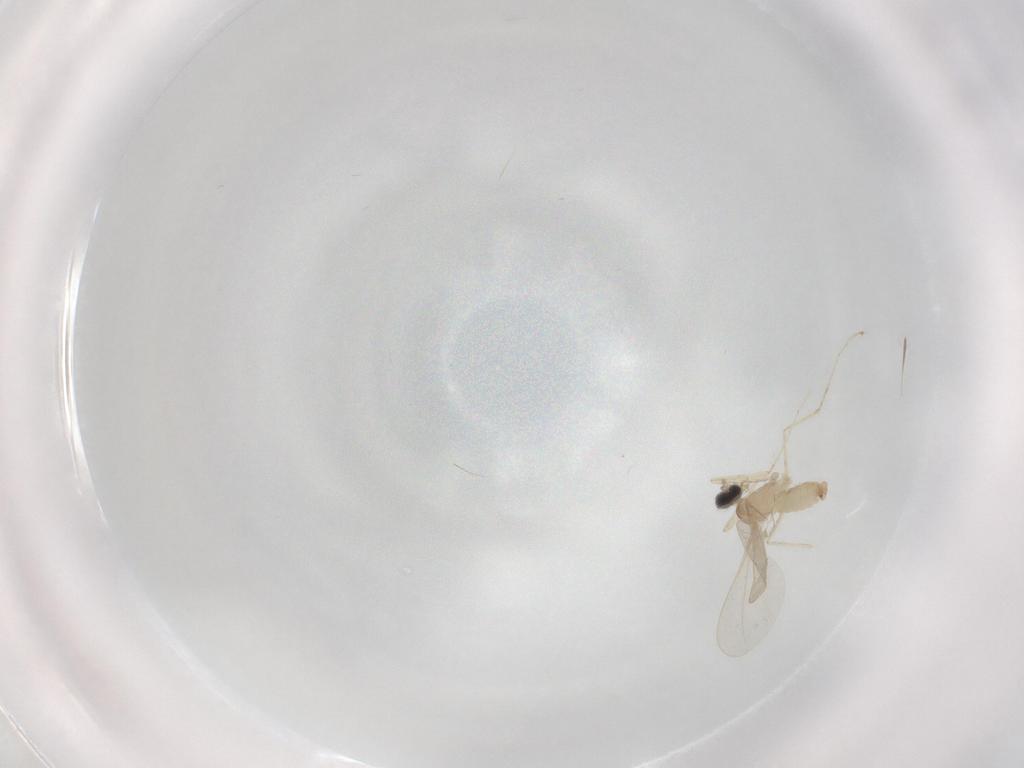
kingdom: Animalia
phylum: Arthropoda
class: Insecta
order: Diptera
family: Cecidomyiidae
